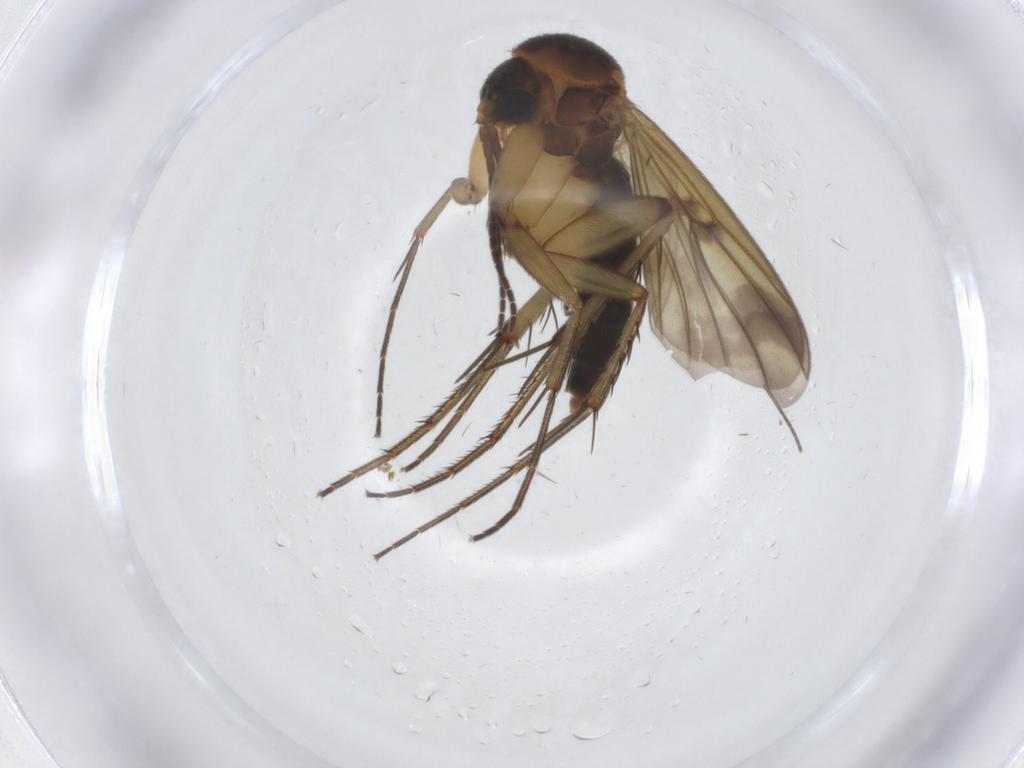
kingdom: Animalia
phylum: Arthropoda
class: Insecta
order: Diptera
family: Ceratopogonidae
